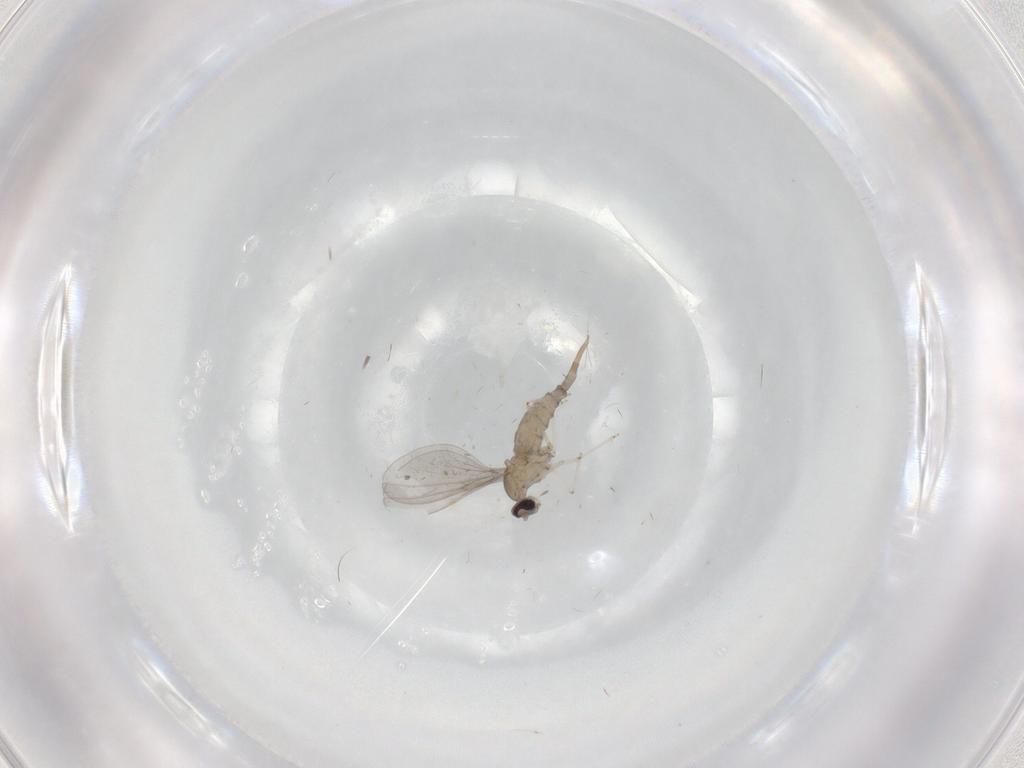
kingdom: Animalia
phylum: Arthropoda
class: Insecta
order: Diptera
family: Cecidomyiidae
